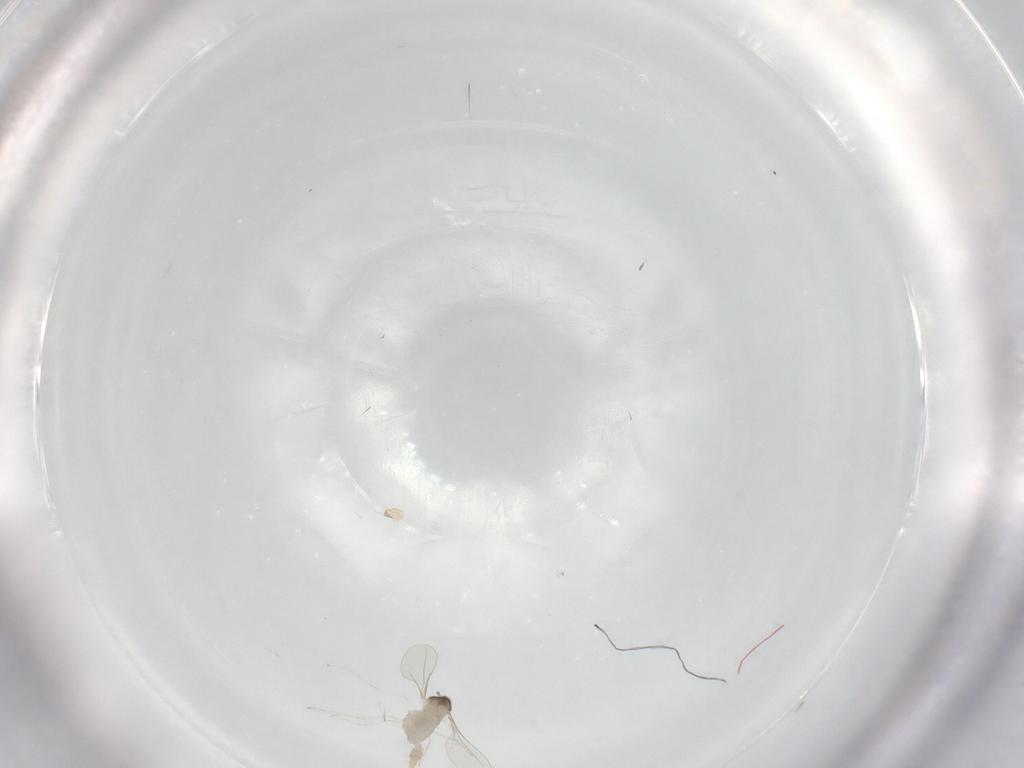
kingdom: Animalia
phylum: Arthropoda
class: Insecta
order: Diptera
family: Cecidomyiidae
